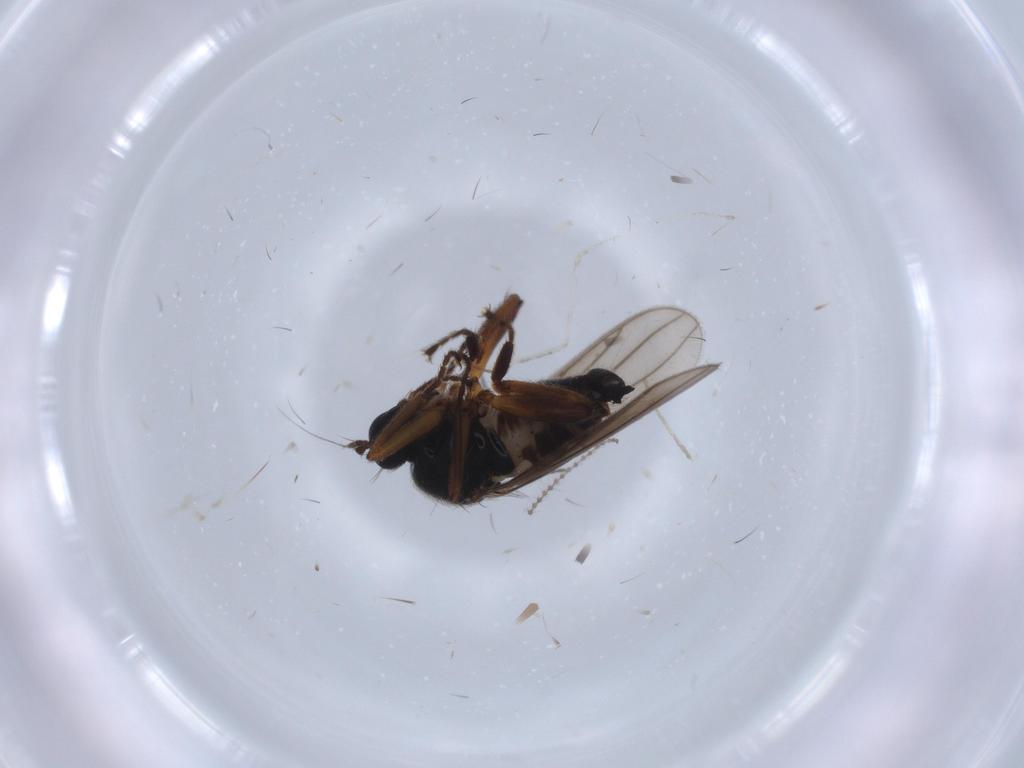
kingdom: Animalia
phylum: Arthropoda
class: Insecta
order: Diptera
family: Hybotidae
